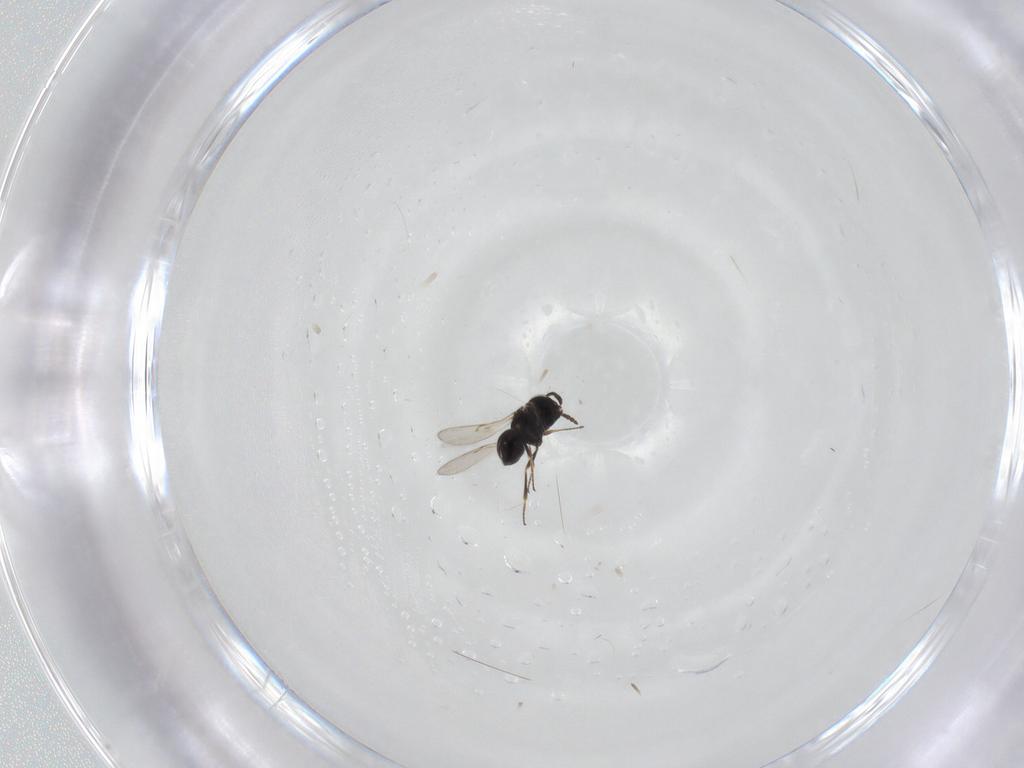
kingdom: Animalia
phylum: Arthropoda
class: Insecta
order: Hymenoptera
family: Scelionidae
